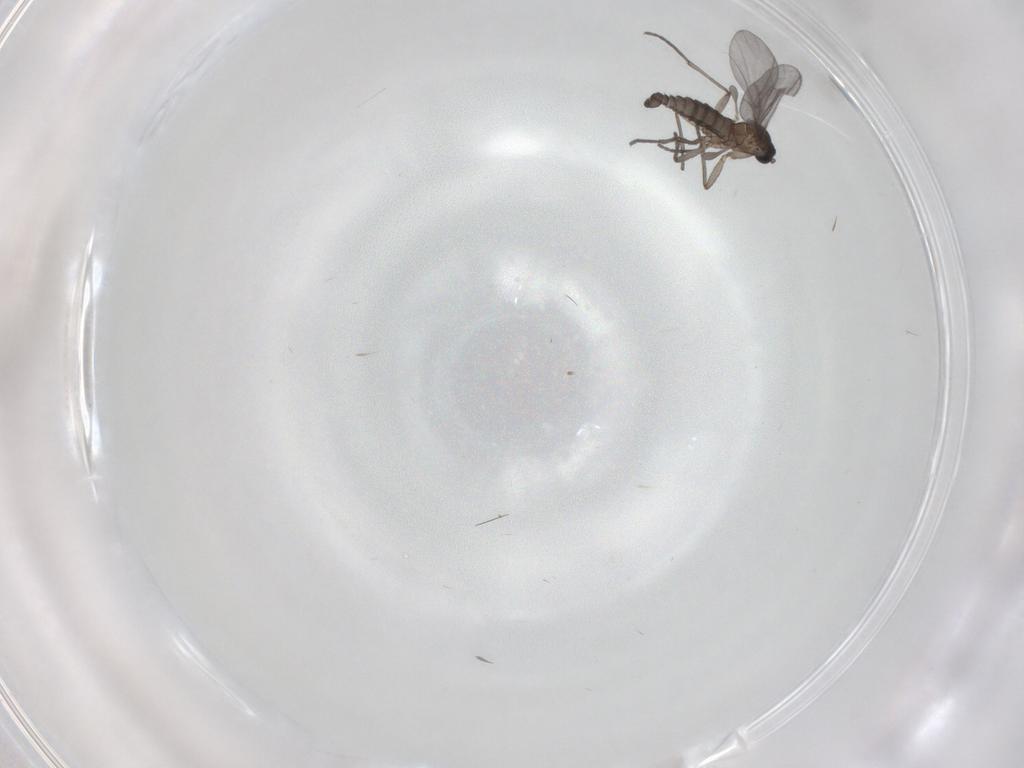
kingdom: Animalia
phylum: Arthropoda
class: Insecta
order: Diptera
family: Sciaridae
